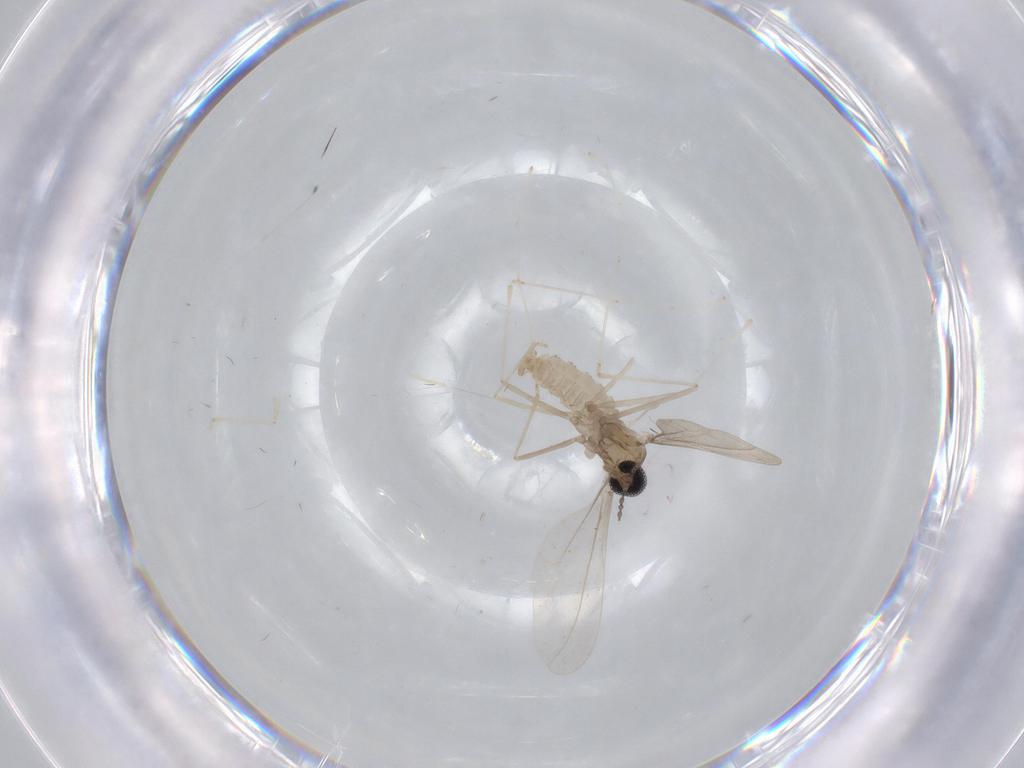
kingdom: Animalia
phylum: Arthropoda
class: Insecta
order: Diptera
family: Cecidomyiidae
